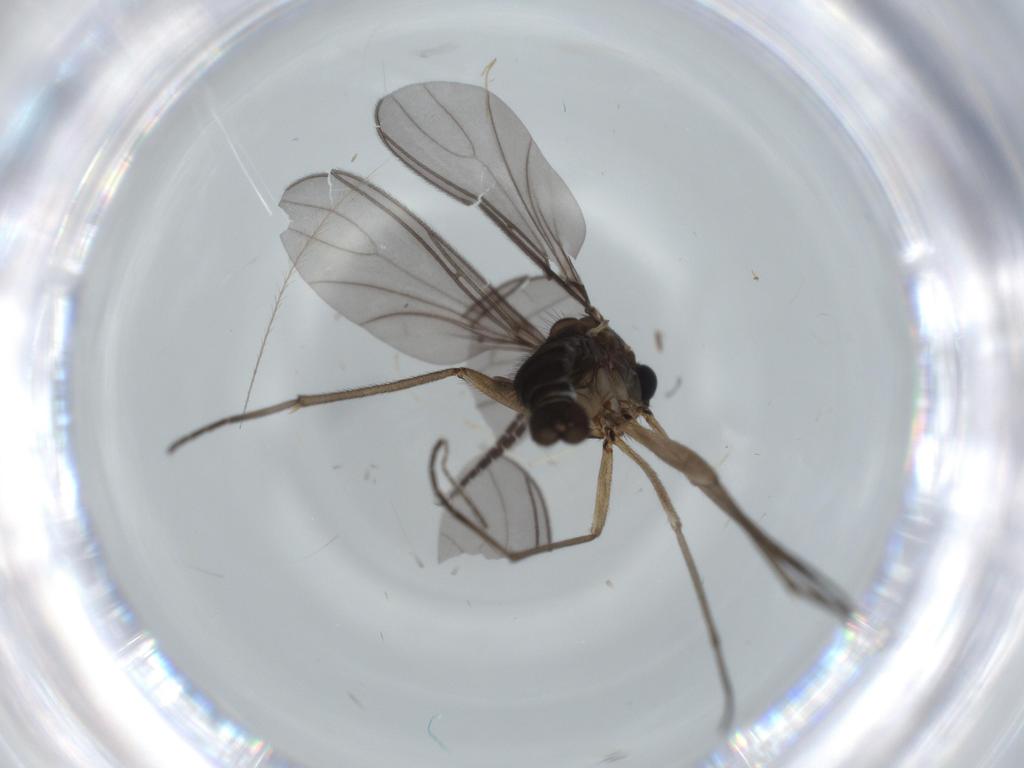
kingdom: Animalia
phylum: Arthropoda
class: Insecta
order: Diptera
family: Sciaridae
